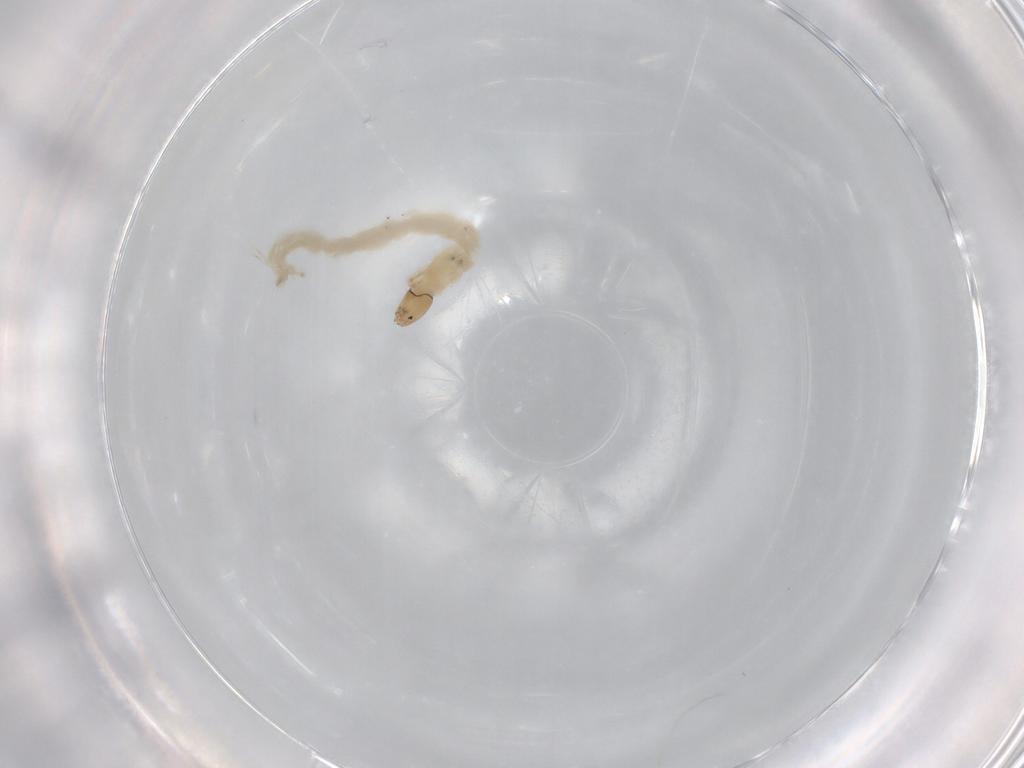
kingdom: Animalia
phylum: Arthropoda
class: Insecta
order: Diptera
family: Chironomidae
